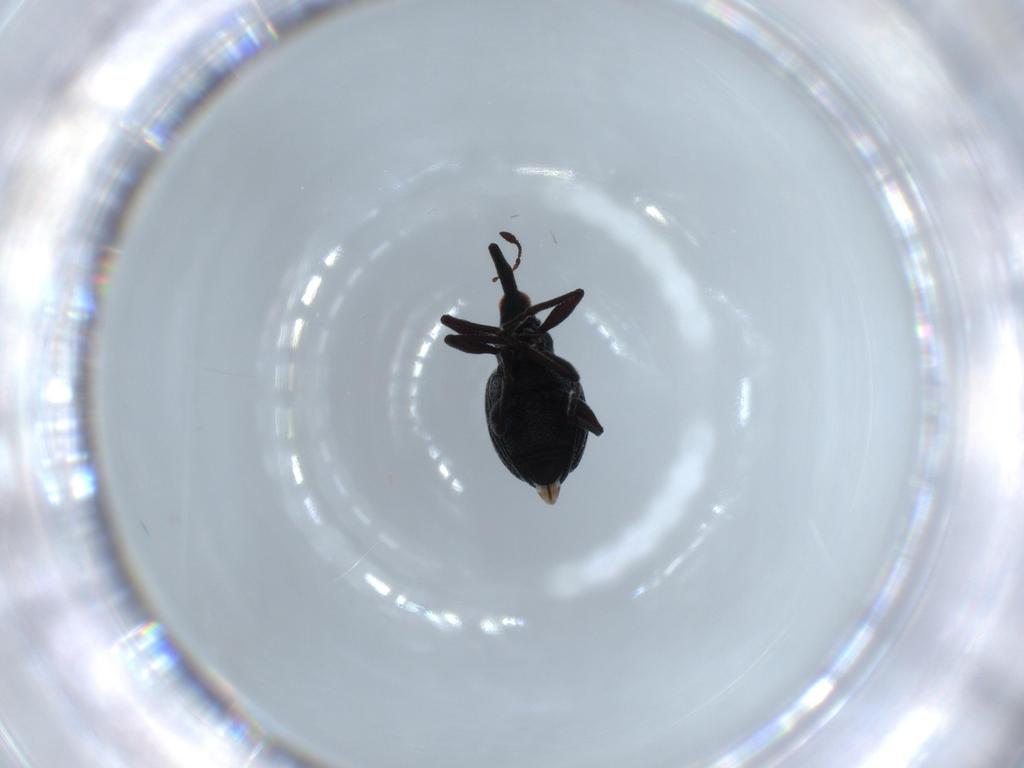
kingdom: Animalia
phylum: Arthropoda
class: Insecta
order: Coleoptera
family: Brentidae
